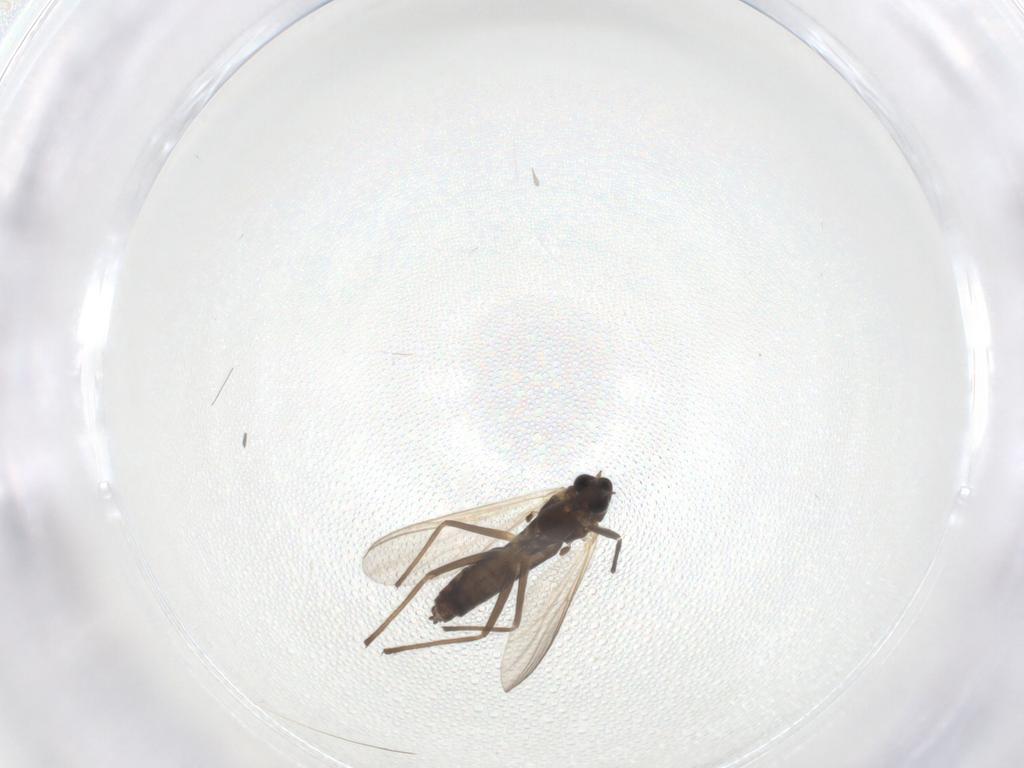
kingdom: Animalia
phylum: Arthropoda
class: Insecta
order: Diptera
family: Chironomidae
